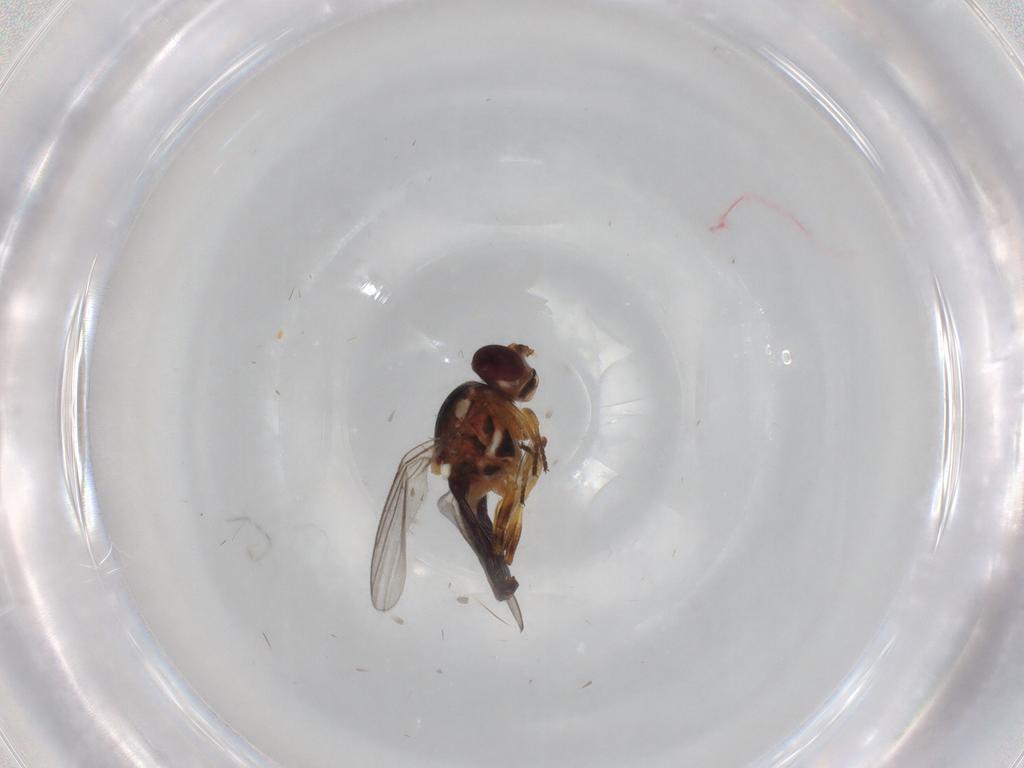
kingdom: Animalia
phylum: Arthropoda
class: Insecta
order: Diptera
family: Chloropidae
